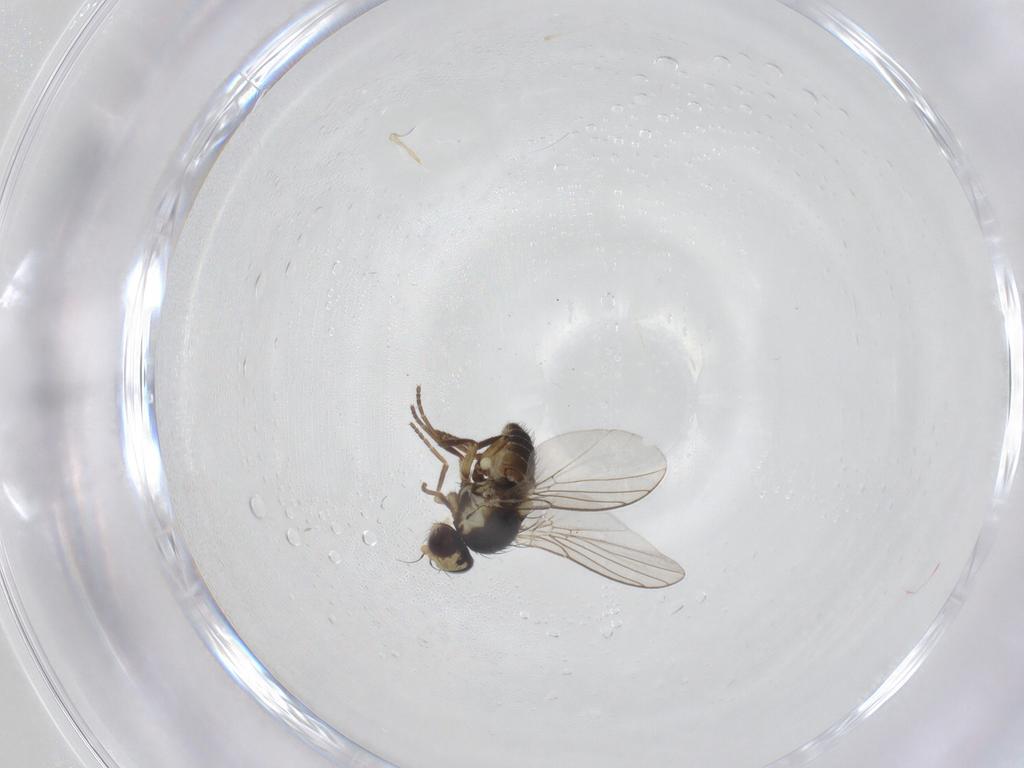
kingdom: Animalia
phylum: Arthropoda
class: Insecta
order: Diptera
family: Agromyzidae
